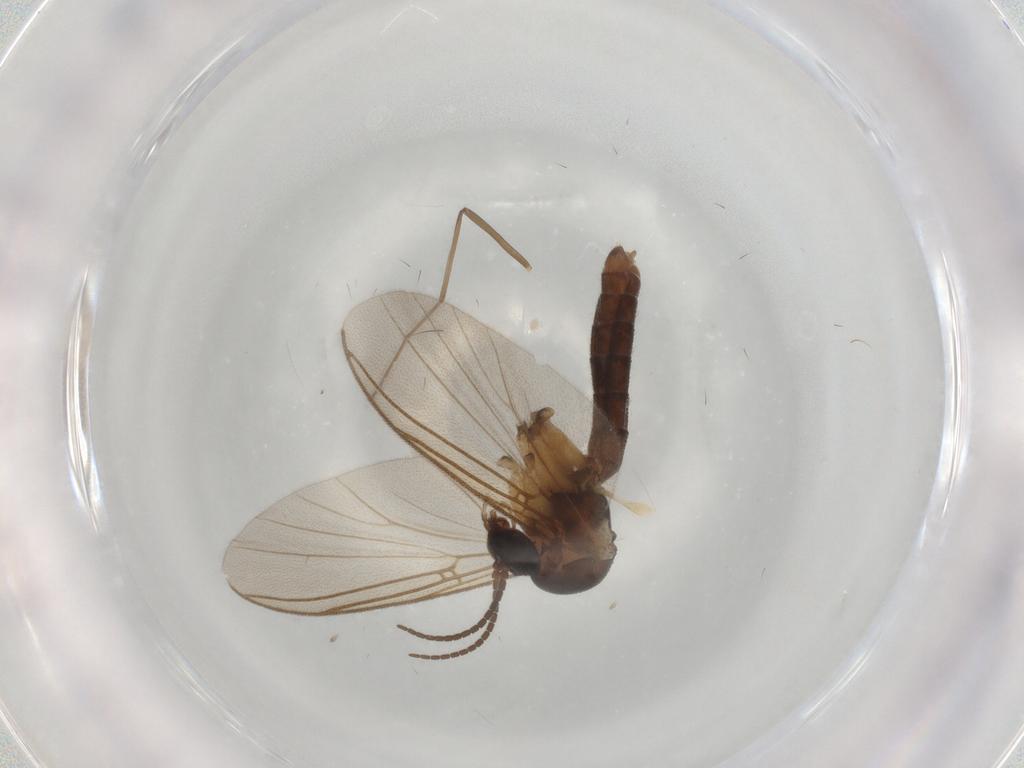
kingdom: Animalia
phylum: Arthropoda
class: Insecta
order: Diptera
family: Mycetophilidae
